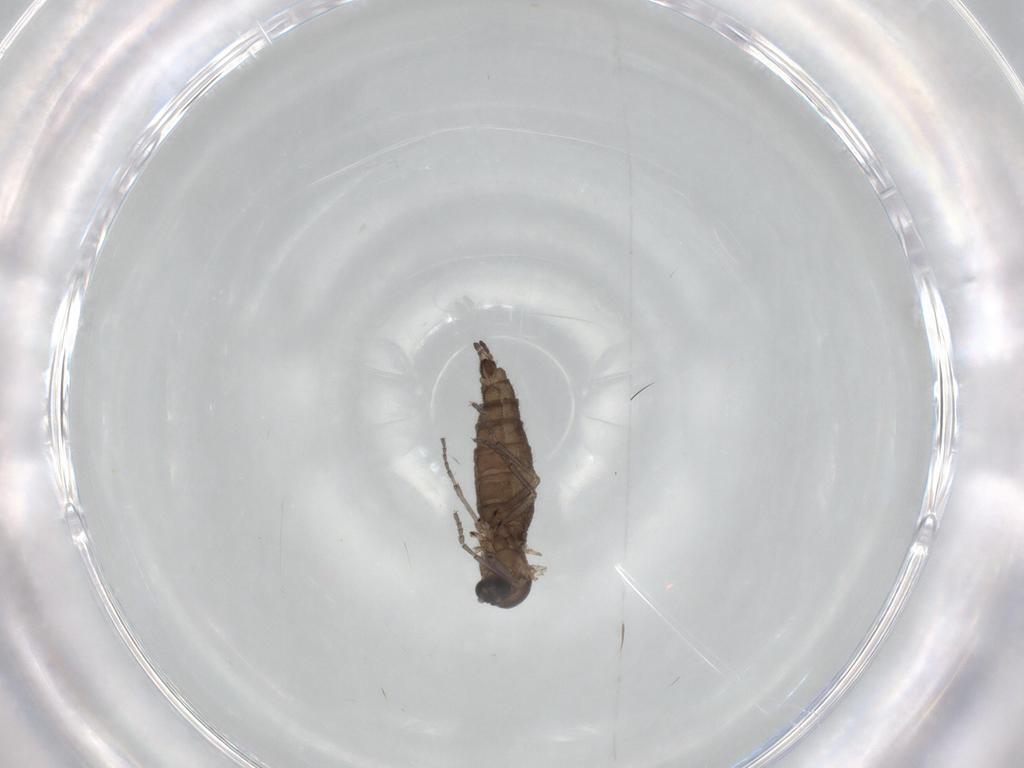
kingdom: Animalia
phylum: Arthropoda
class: Insecta
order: Diptera
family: Sciaridae
